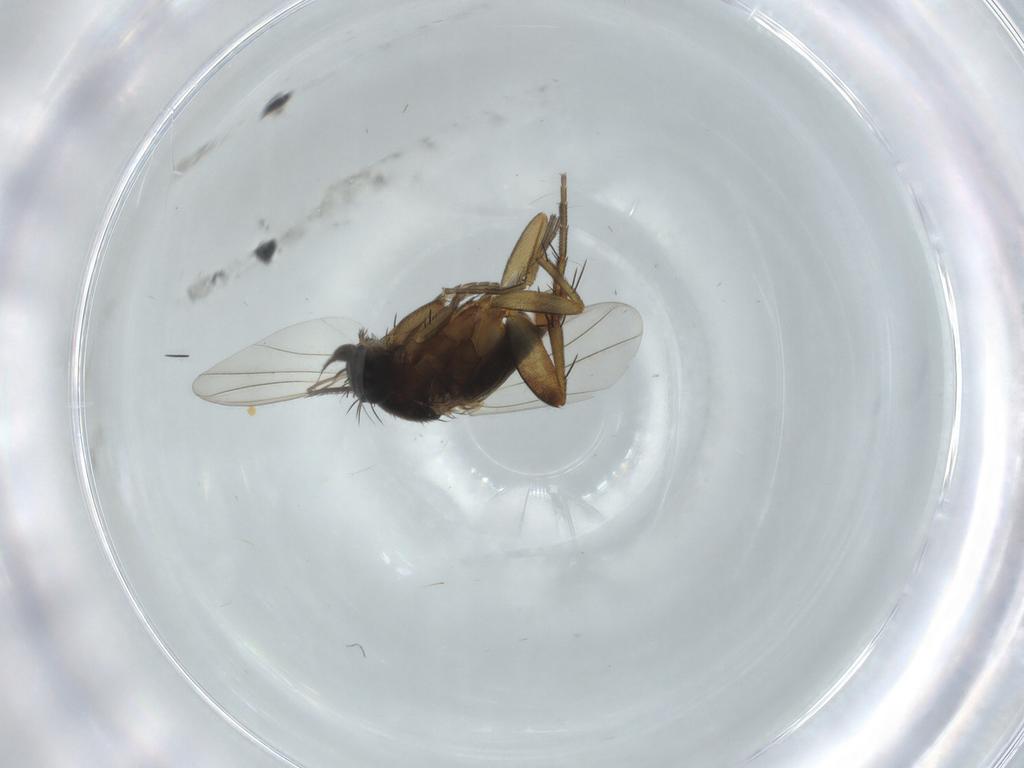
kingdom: Animalia
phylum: Arthropoda
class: Insecta
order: Diptera
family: Phoridae
